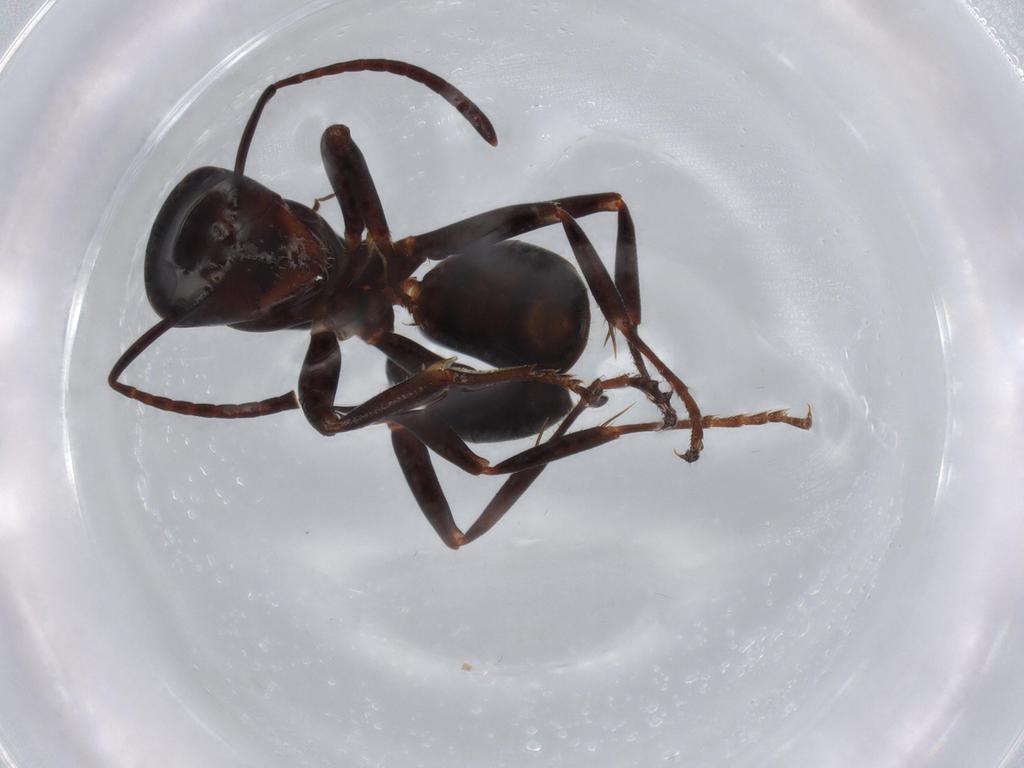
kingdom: Animalia
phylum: Arthropoda
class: Insecta
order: Hymenoptera
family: Formicidae
